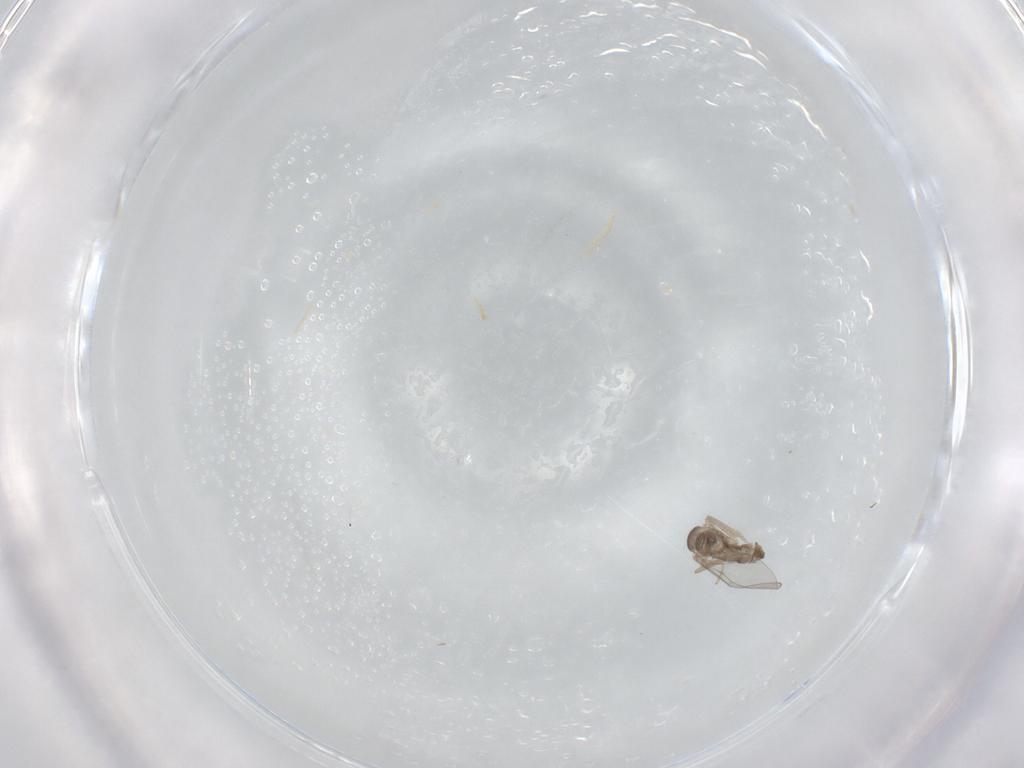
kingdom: Animalia
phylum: Arthropoda
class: Insecta
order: Diptera
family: Cecidomyiidae
